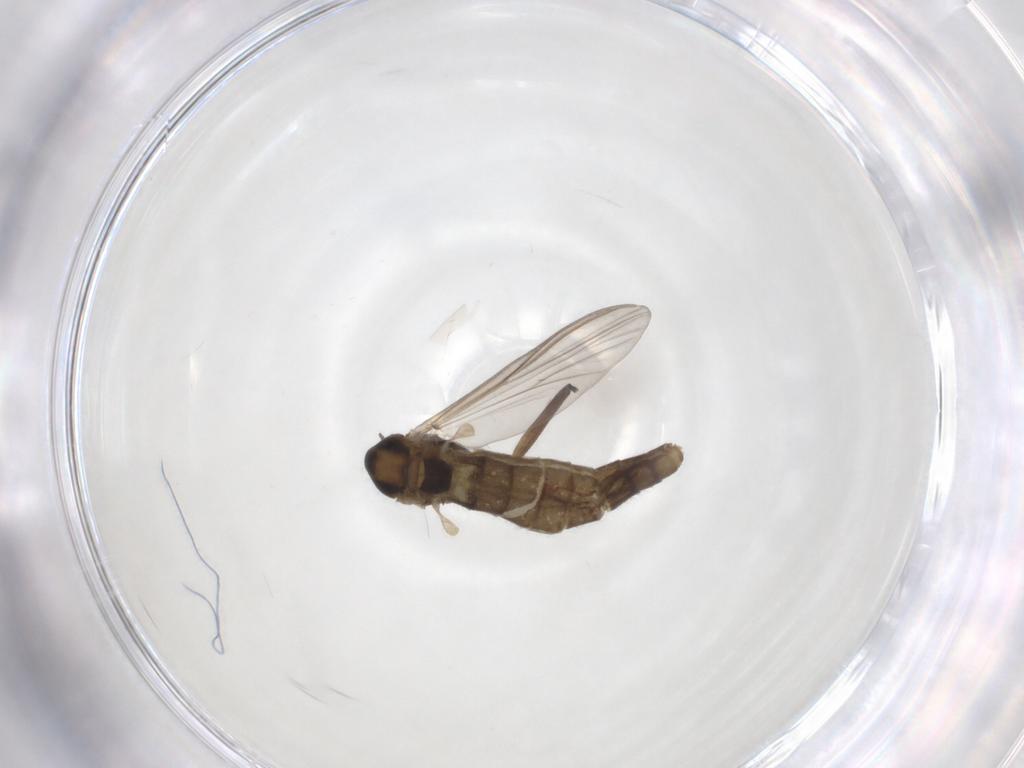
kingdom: Animalia
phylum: Arthropoda
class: Insecta
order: Diptera
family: Chironomidae
